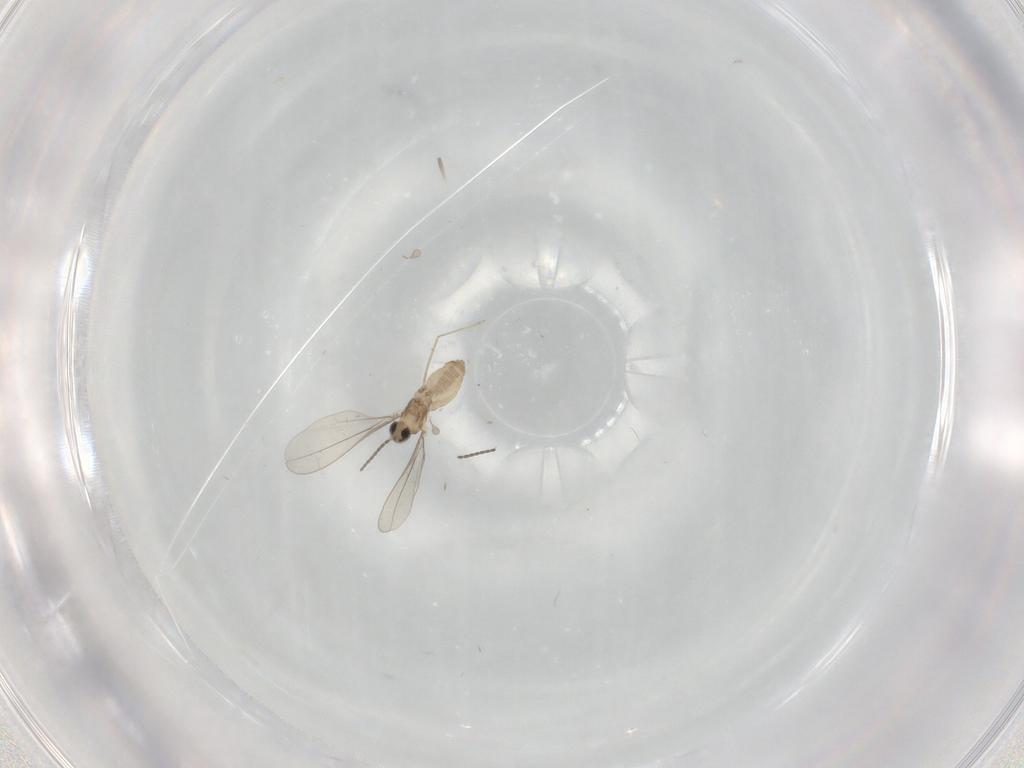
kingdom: Animalia
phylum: Arthropoda
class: Insecta
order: Diptera
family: Cecidomyiidae
